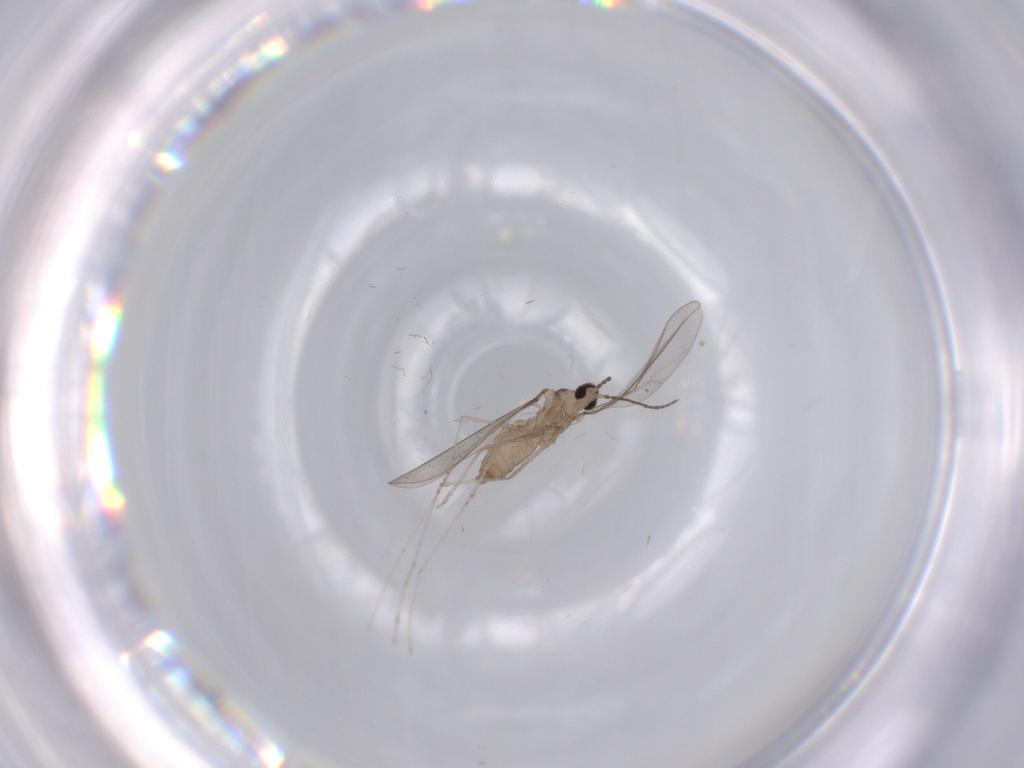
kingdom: Animalia
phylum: Arthropoda
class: Insecta
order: Diptera
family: Cecidomyiidae
